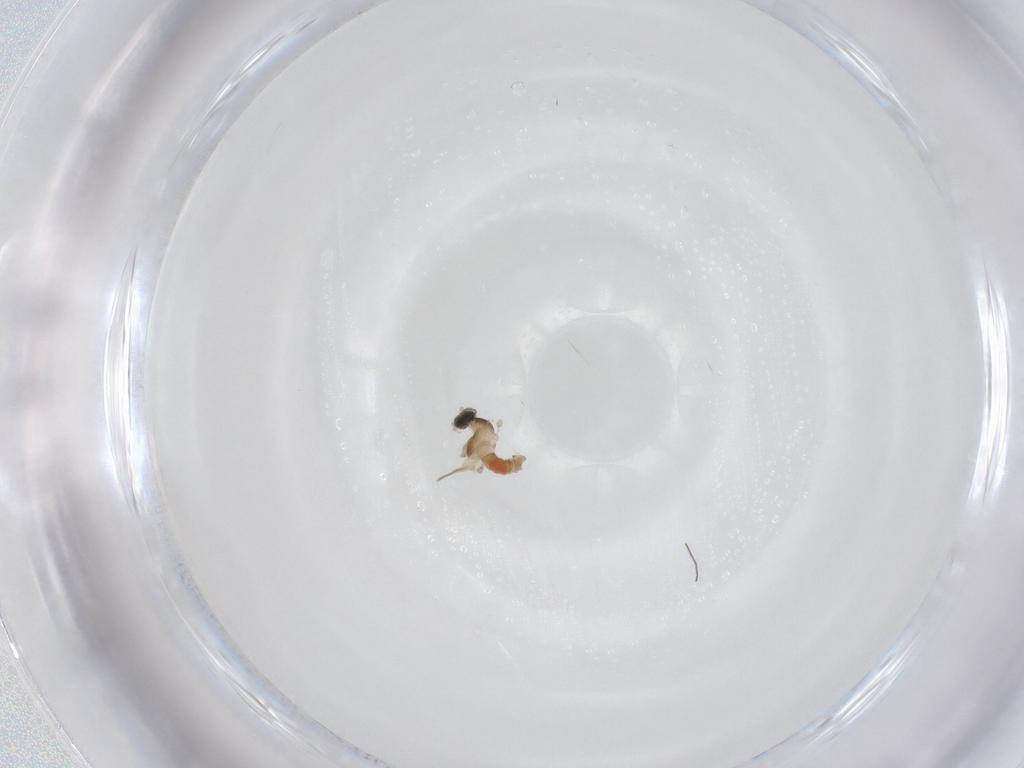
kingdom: Animalia
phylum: Arthropoda
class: Insecta
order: Diptera
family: Cecidomyiidae
